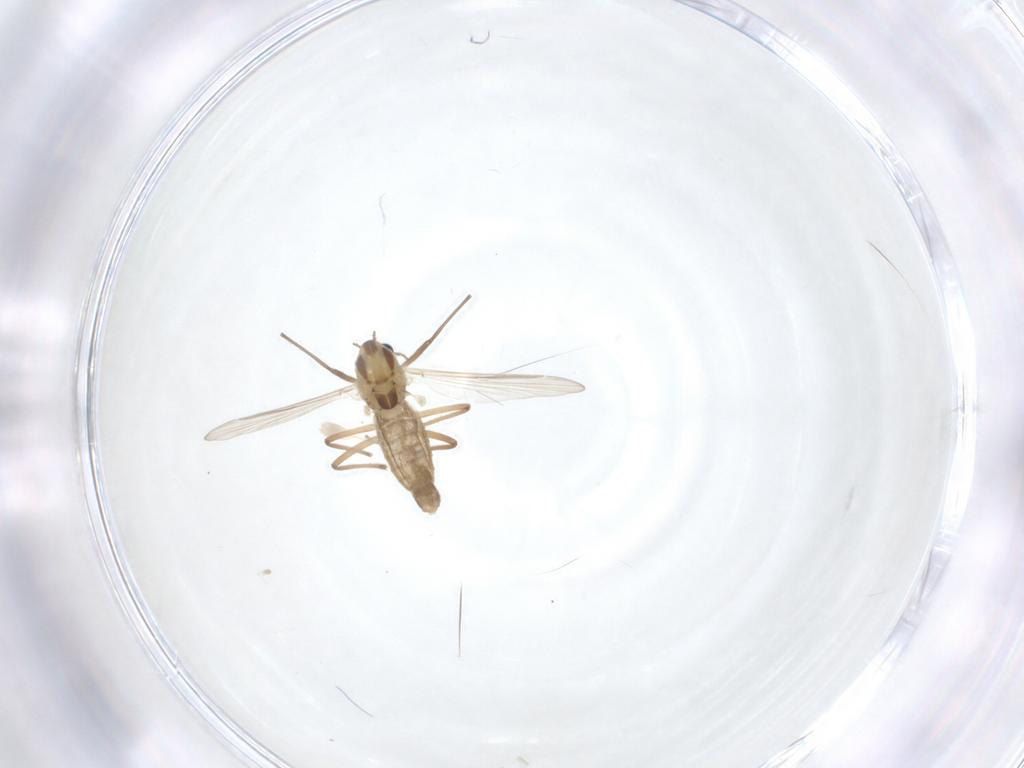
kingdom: Animalia
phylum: Arthropoda
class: Insecta
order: Diptera
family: Chironomidae
